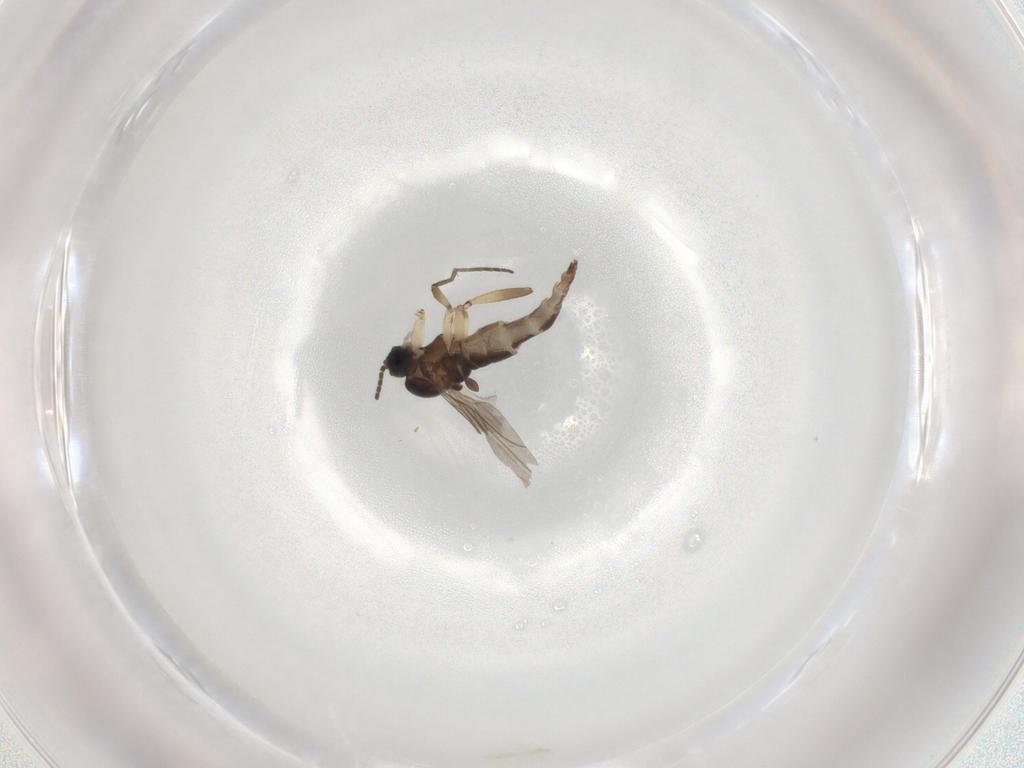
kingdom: Animalia
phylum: Arthropoda
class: Insecta
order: Diptera
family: Sciaridae
